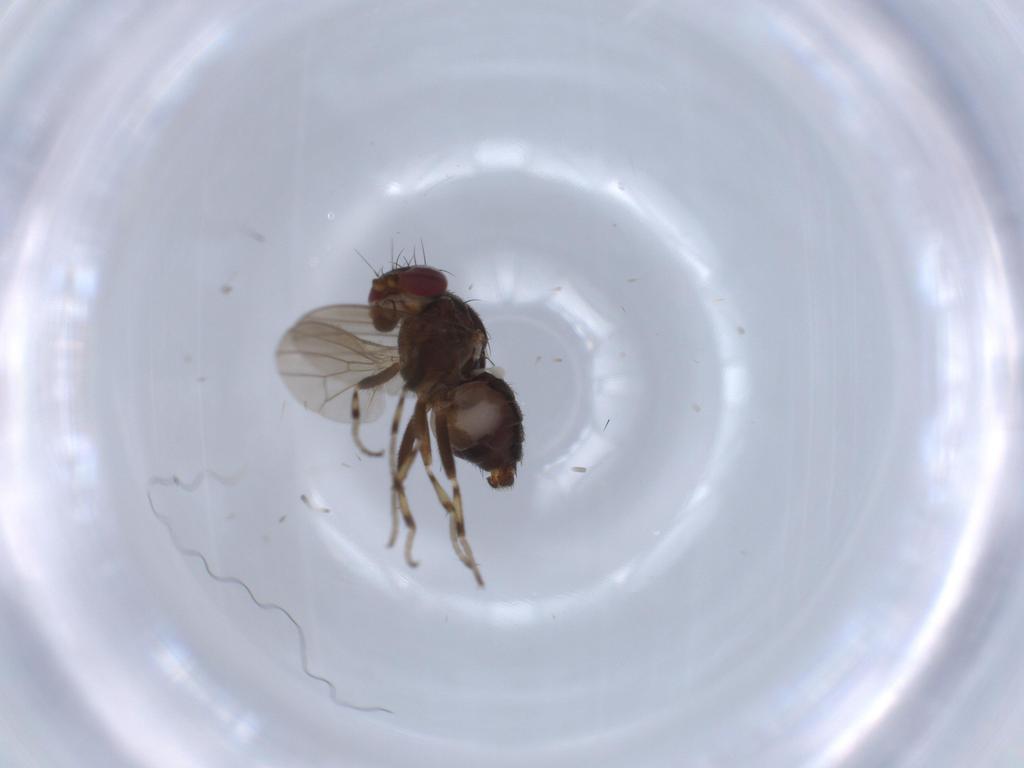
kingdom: Animalia
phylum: Arthropoda
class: Insecta
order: Diptera
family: Heleomyzidae
